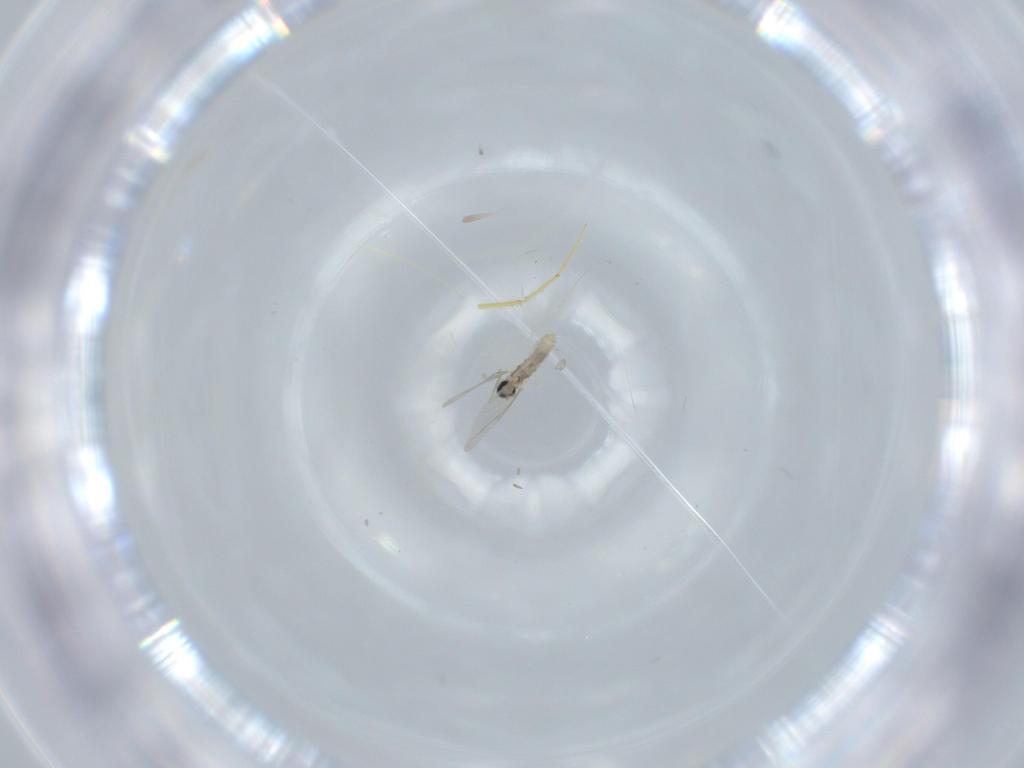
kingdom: Animalia
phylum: Arthropoda
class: Insecta
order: Diptera
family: Cecidomyiidae
